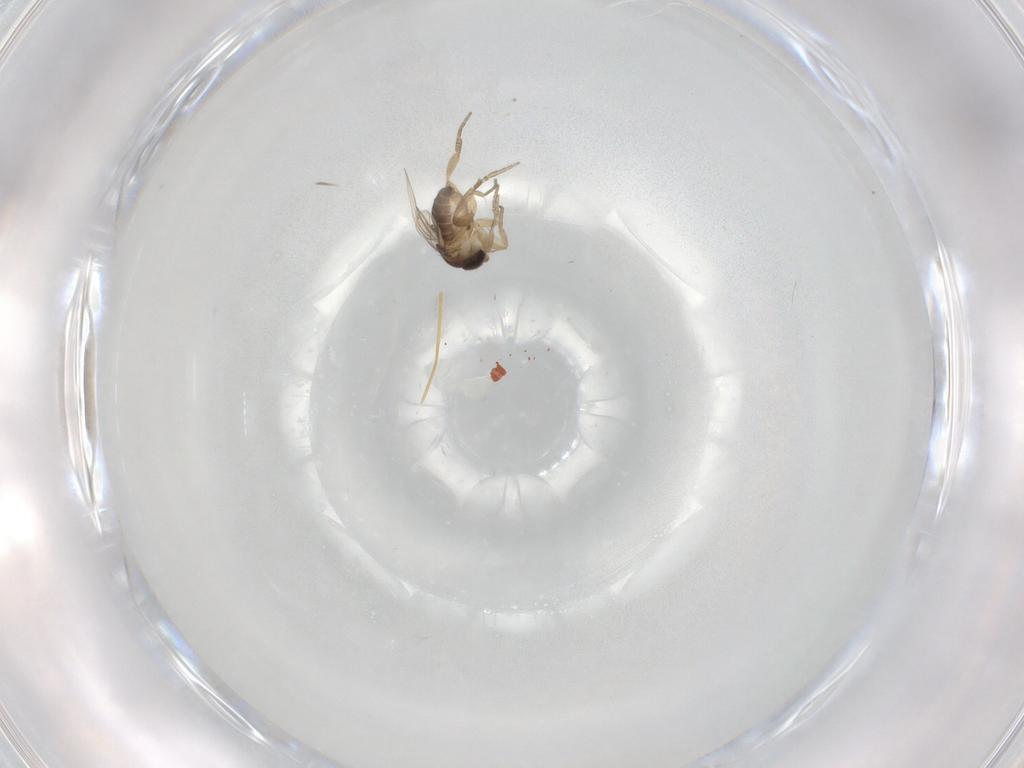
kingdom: Animalia
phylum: Arthropoda
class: Insecta
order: Diptera
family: Phoridae
